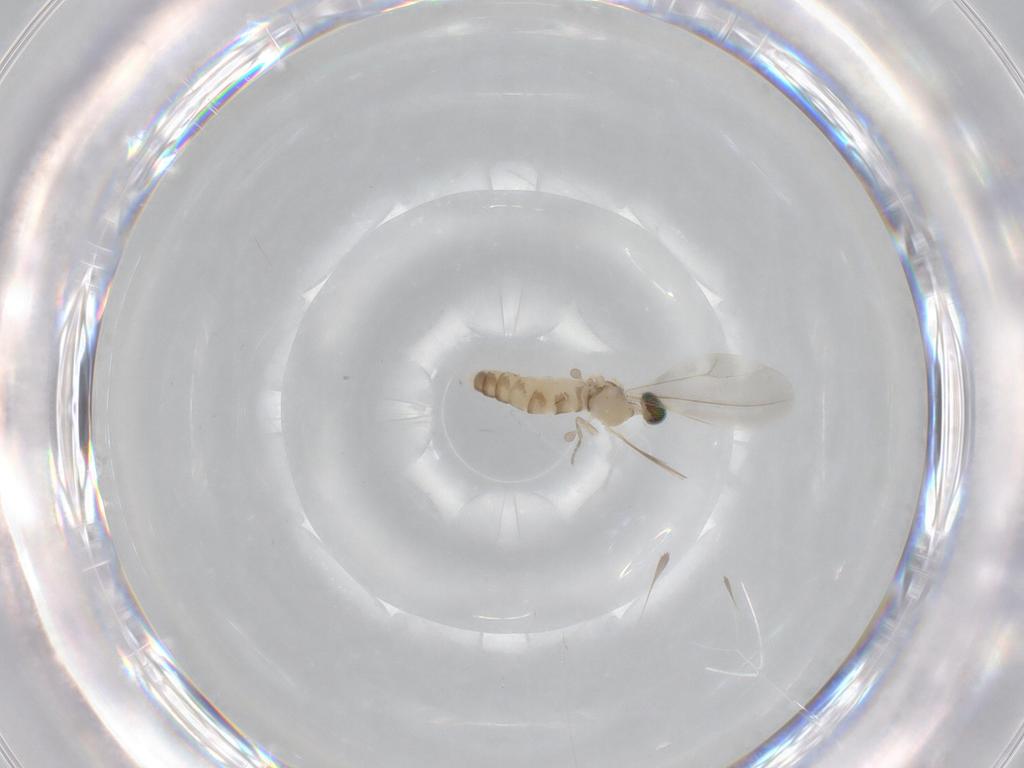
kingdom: Animalia
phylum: Arthropoda
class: Insecta
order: Diptera
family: Cecidomyiidae
